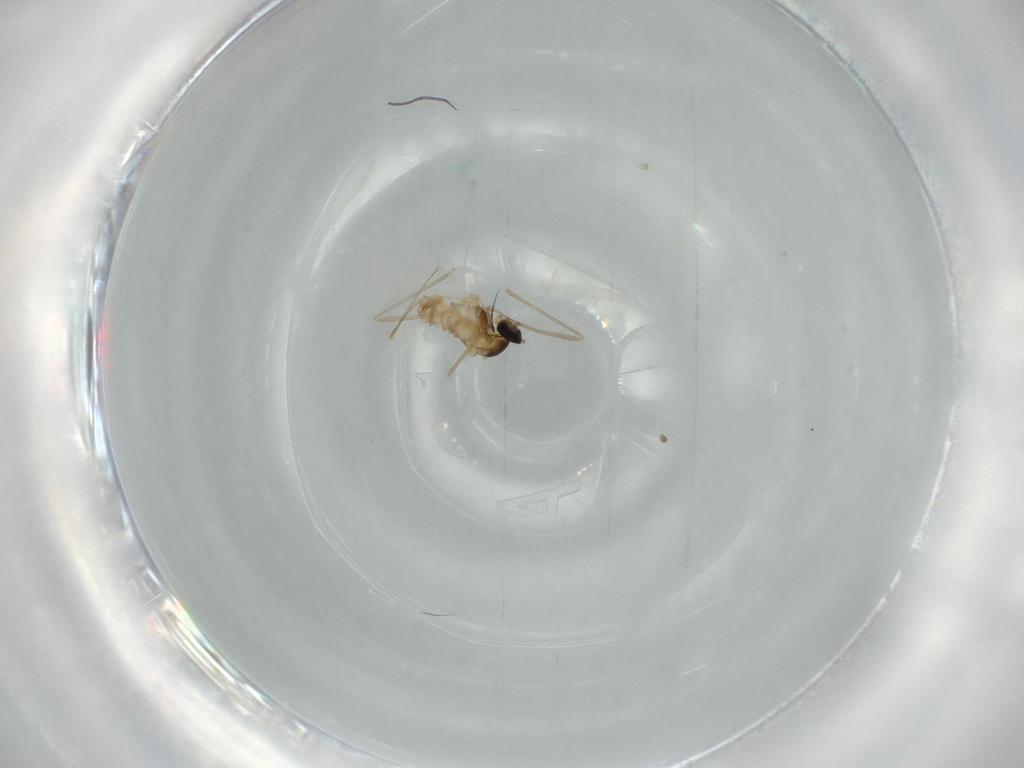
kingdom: Animalia
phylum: Arthropoda
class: Insecta
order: Diptera
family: Cecidomyiidae
